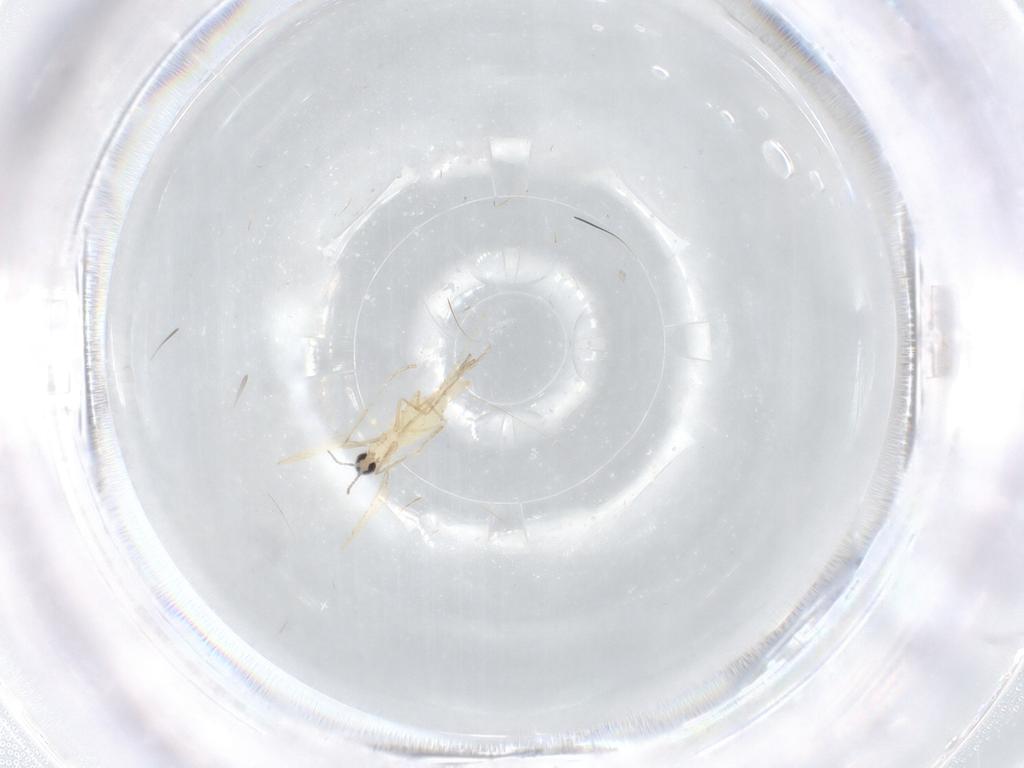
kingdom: Animalia
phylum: Arthropoda
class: Insecta
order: Diptera
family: Cecidomyiidae
